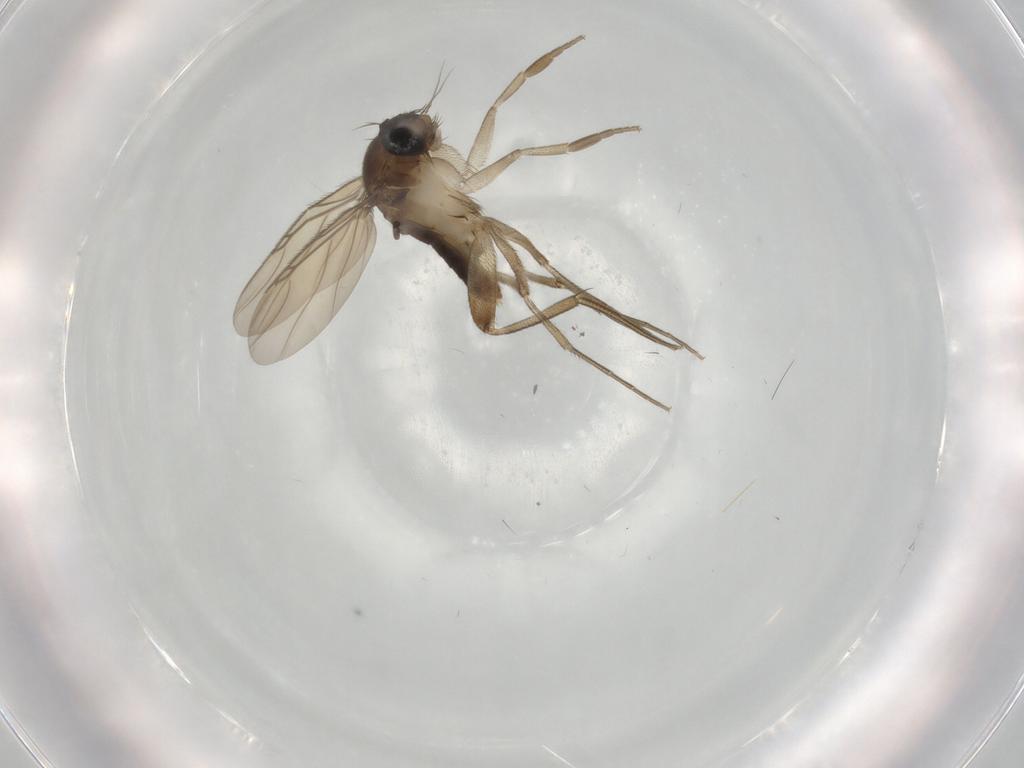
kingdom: Animalia
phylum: Arthropoda
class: Insecta
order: Diptera
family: Phoridae
